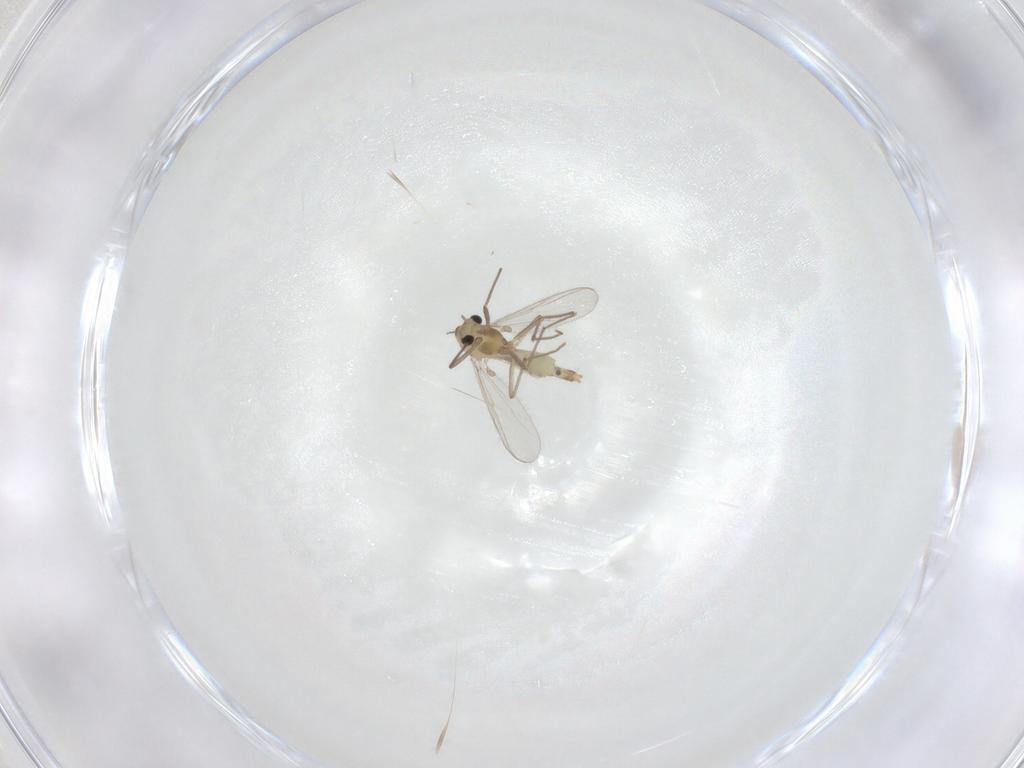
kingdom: Animalia
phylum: Arthropoda
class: Insecta
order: Diptera
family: Chironomidae
